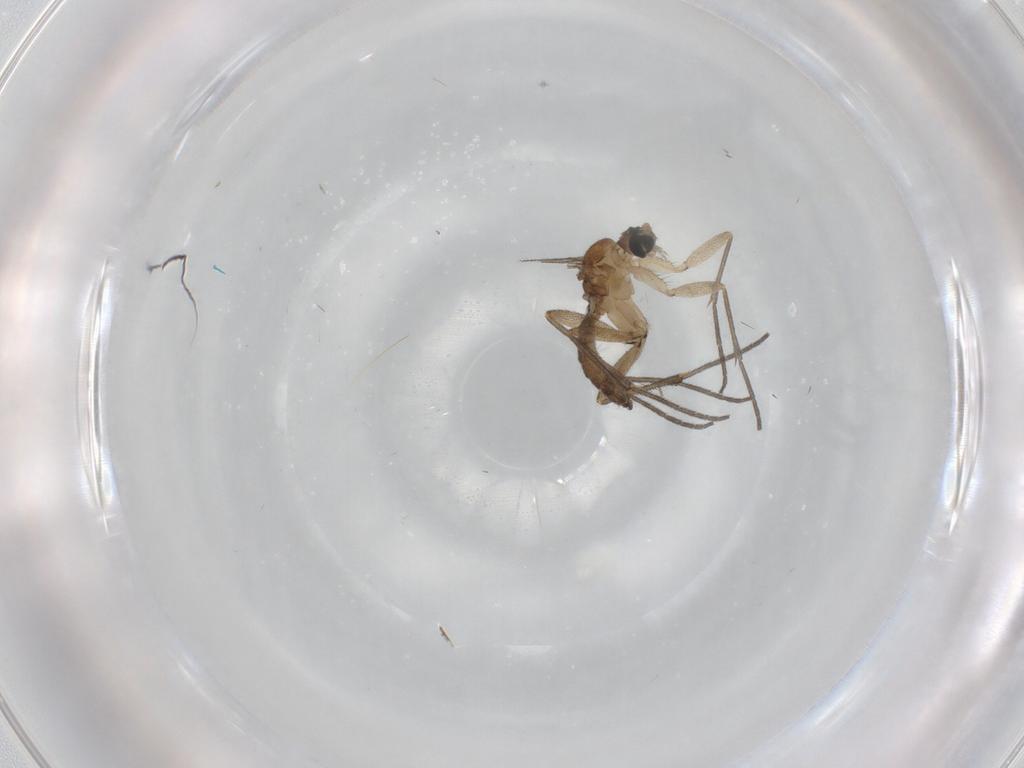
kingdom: Animalia
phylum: Arthropoda
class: Insecta
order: Diptera
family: Sciaridae
